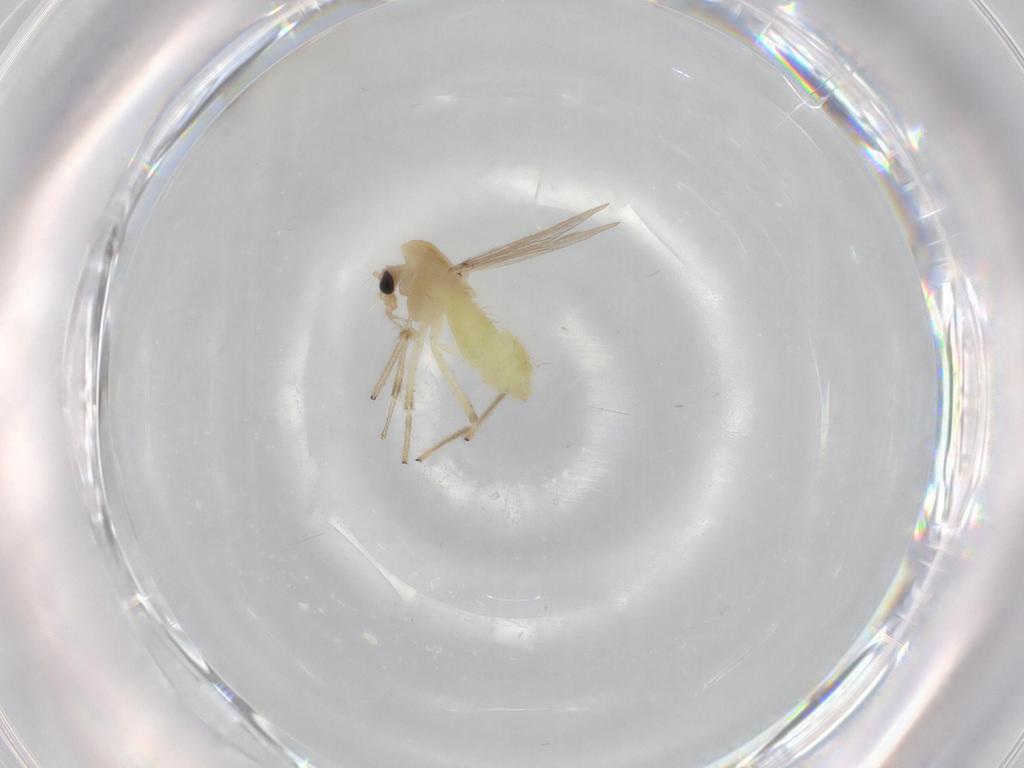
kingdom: Animalia
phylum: Arthropoda
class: Insecta
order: Diptera
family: Chironomidae
